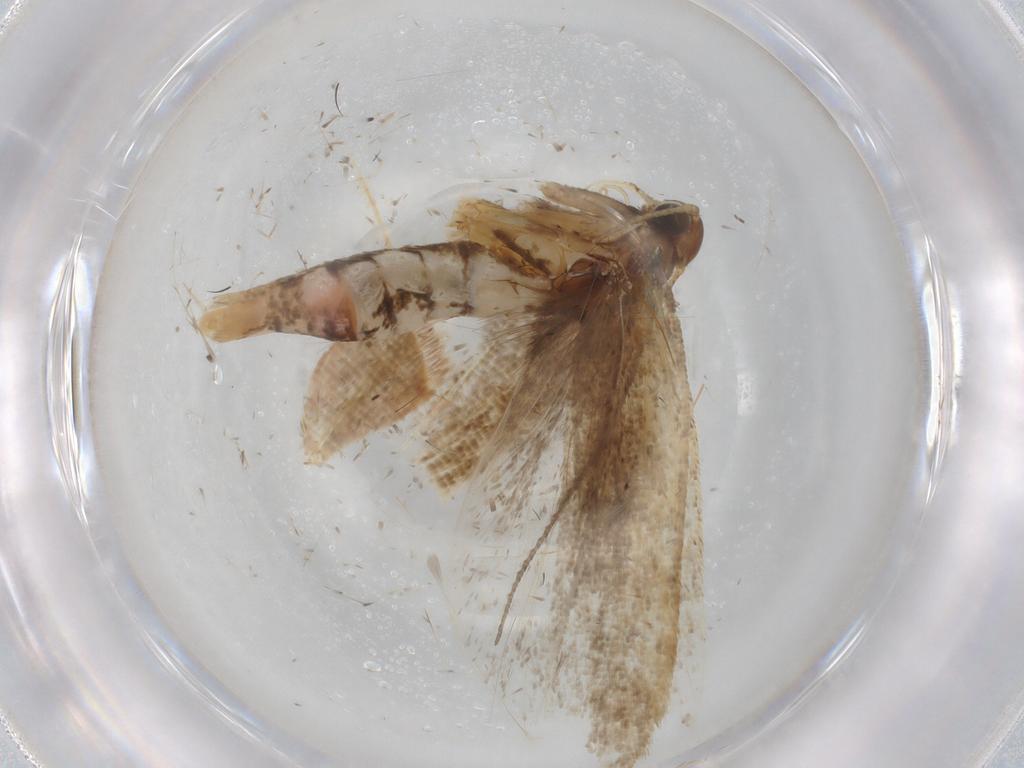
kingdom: Animalia
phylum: Arthropoda
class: Insecta
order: Lepidoptera
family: Gelechiidae
